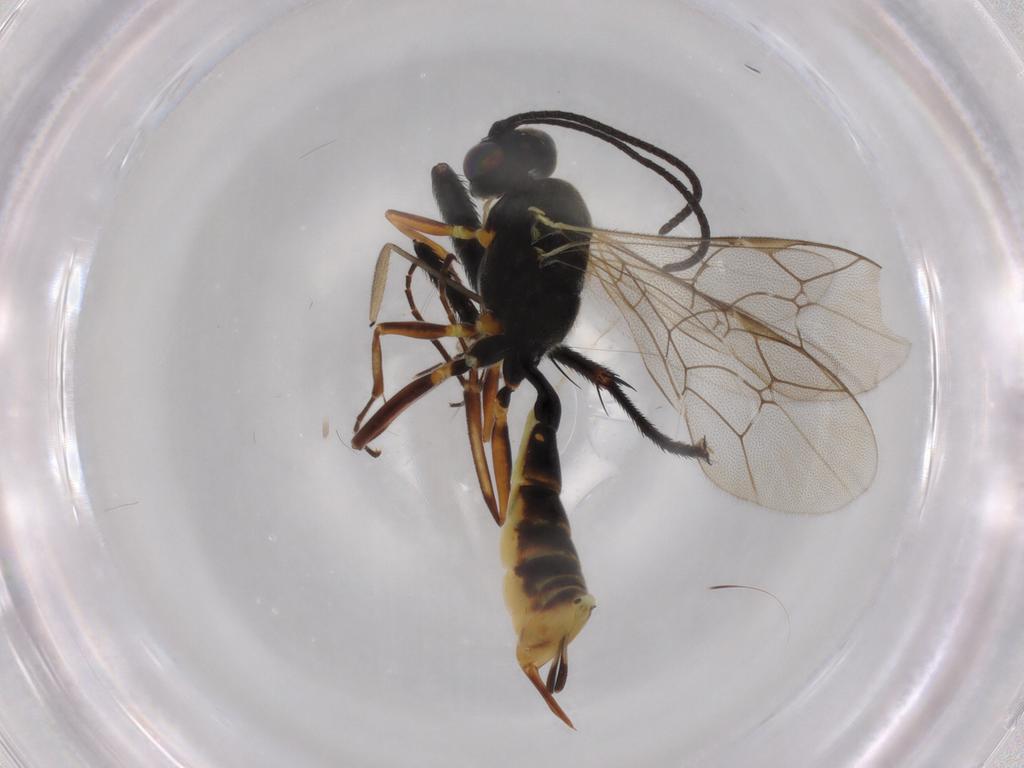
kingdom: Animalia
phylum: Arthropoda
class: Insecta
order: Hymenoptera
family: Ichneumonidae
